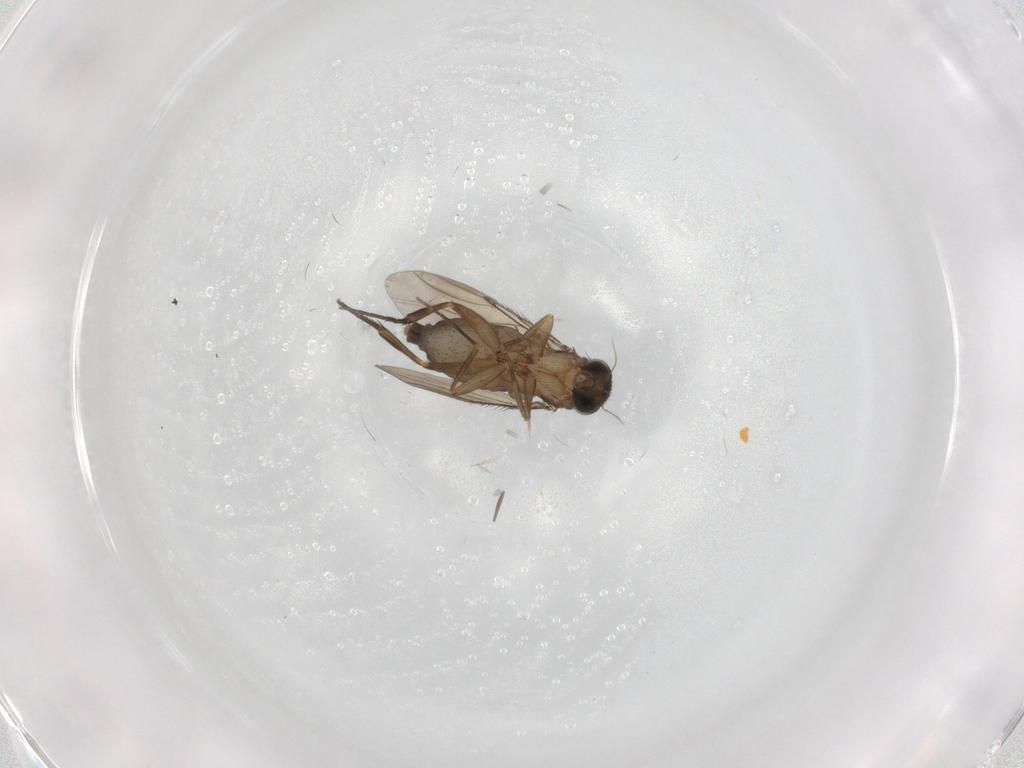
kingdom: Animalia
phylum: Arthropoda
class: Insecta
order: Diptera
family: Phoridae
